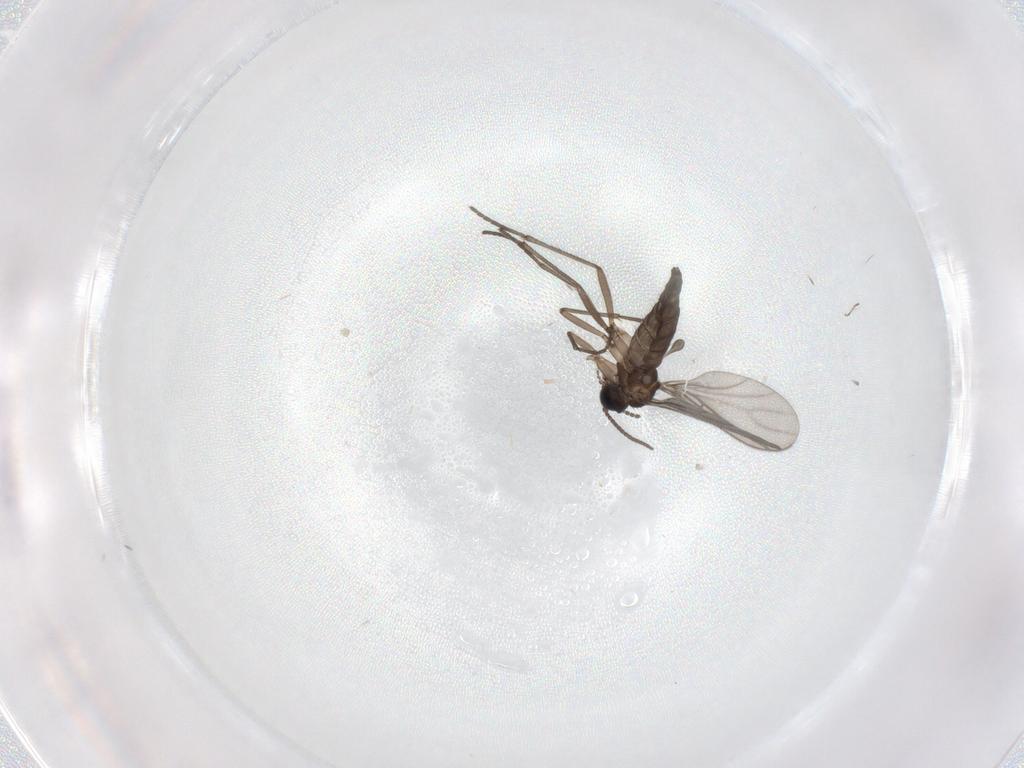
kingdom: Animalia
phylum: Arthropoda
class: Insecta
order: Diptera
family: Sciaridae
